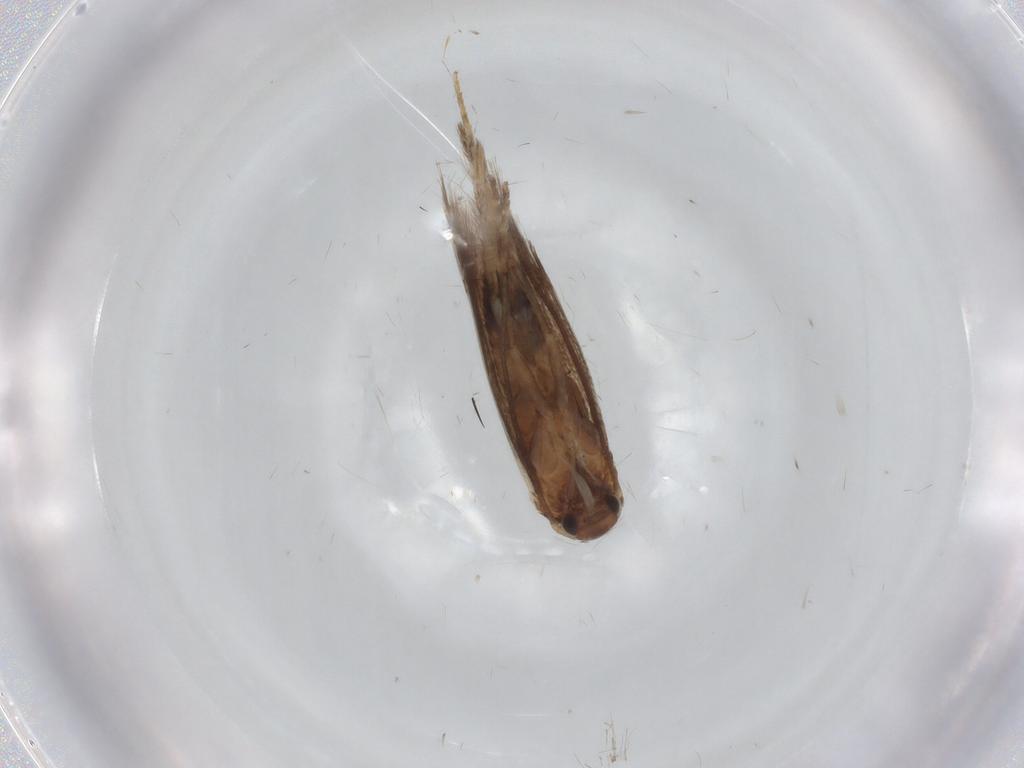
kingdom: Animalia
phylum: Arthropoda
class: Insecta
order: Lepidoptera
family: Elachistidae
